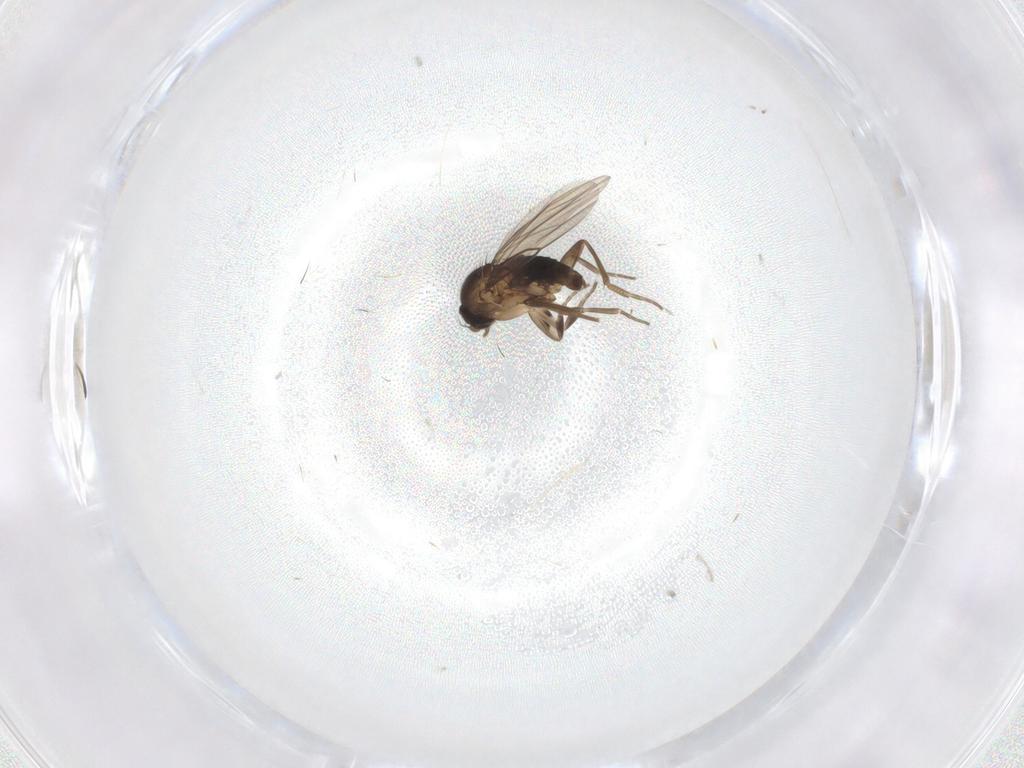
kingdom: Animalia
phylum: Arthropoda
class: Insecta
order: Diptera
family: Phoridae
